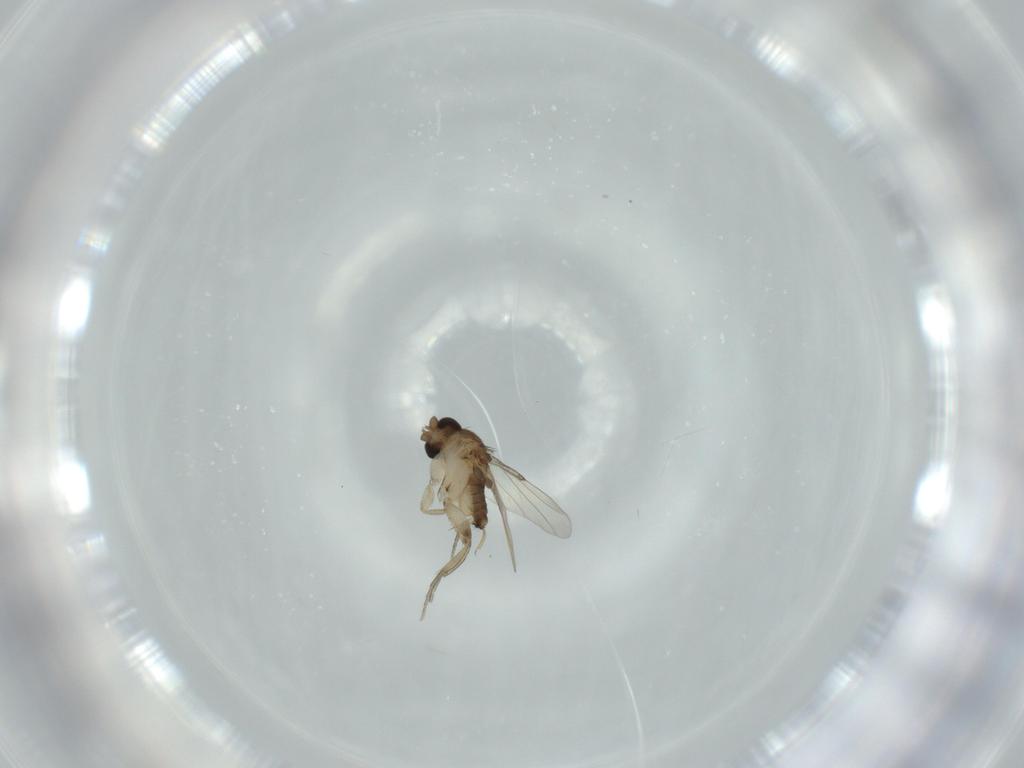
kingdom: Animalia
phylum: Arthropoda
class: Insecta
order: Diptera
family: Phoridae
